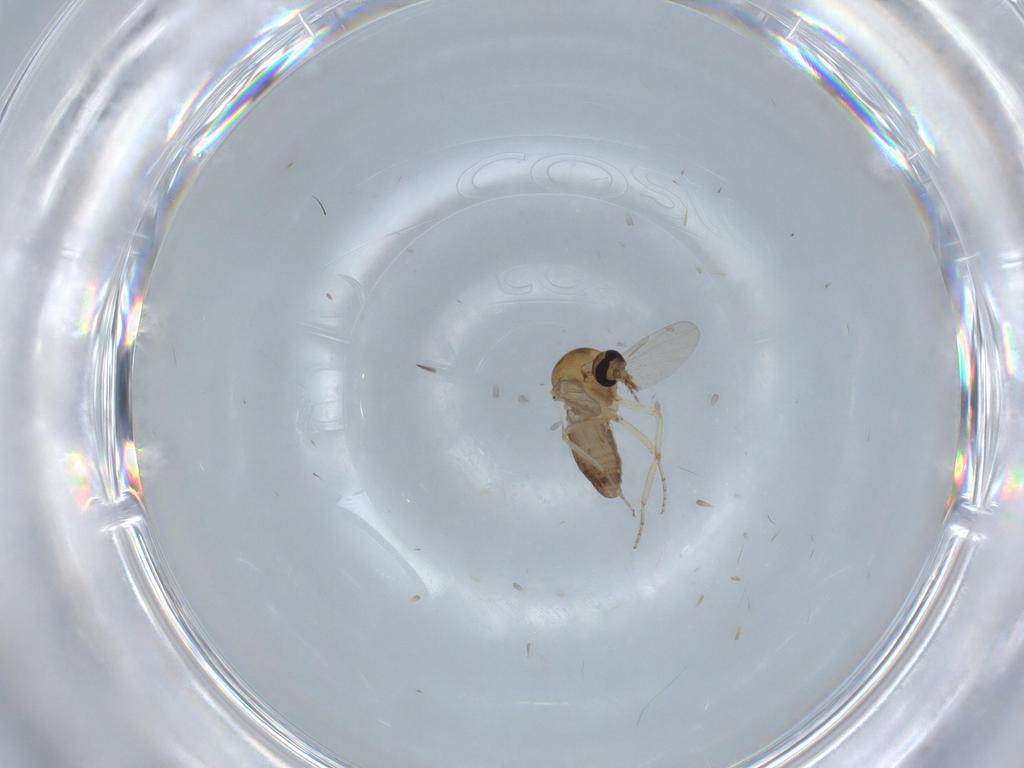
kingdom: Animalia
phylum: Arthropoda
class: Insecta
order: Diptera
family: Ceratopogonidae
